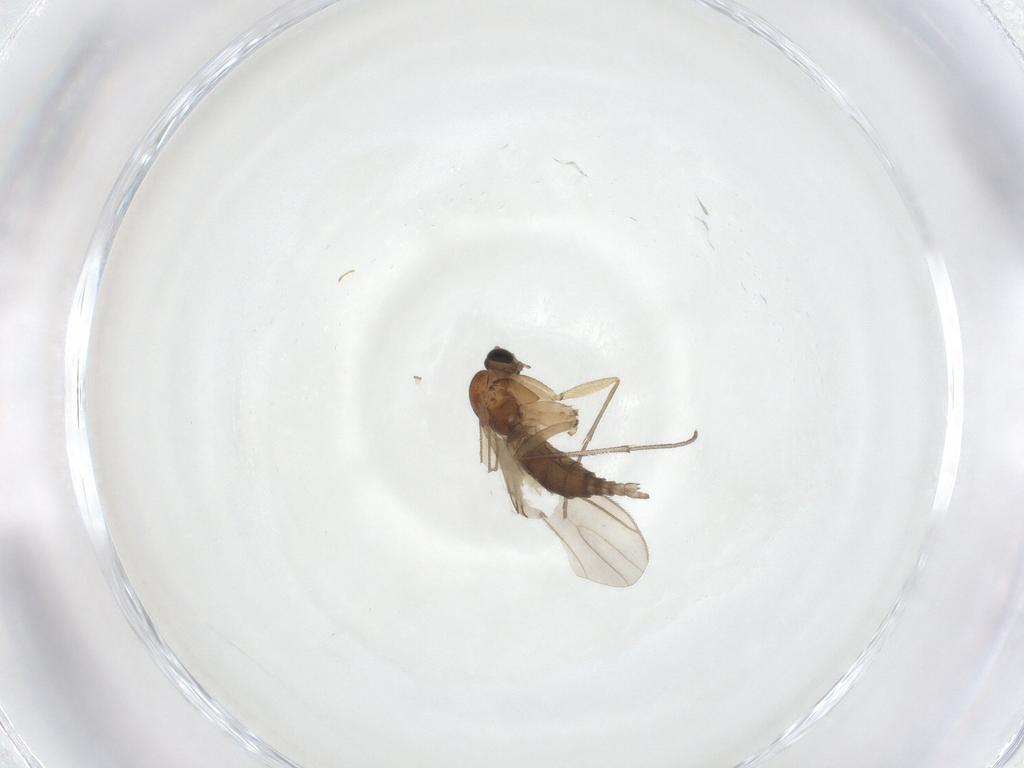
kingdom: Animalia
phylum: Arthropoda
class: Insecta
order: Diptera
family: Sciaridae
